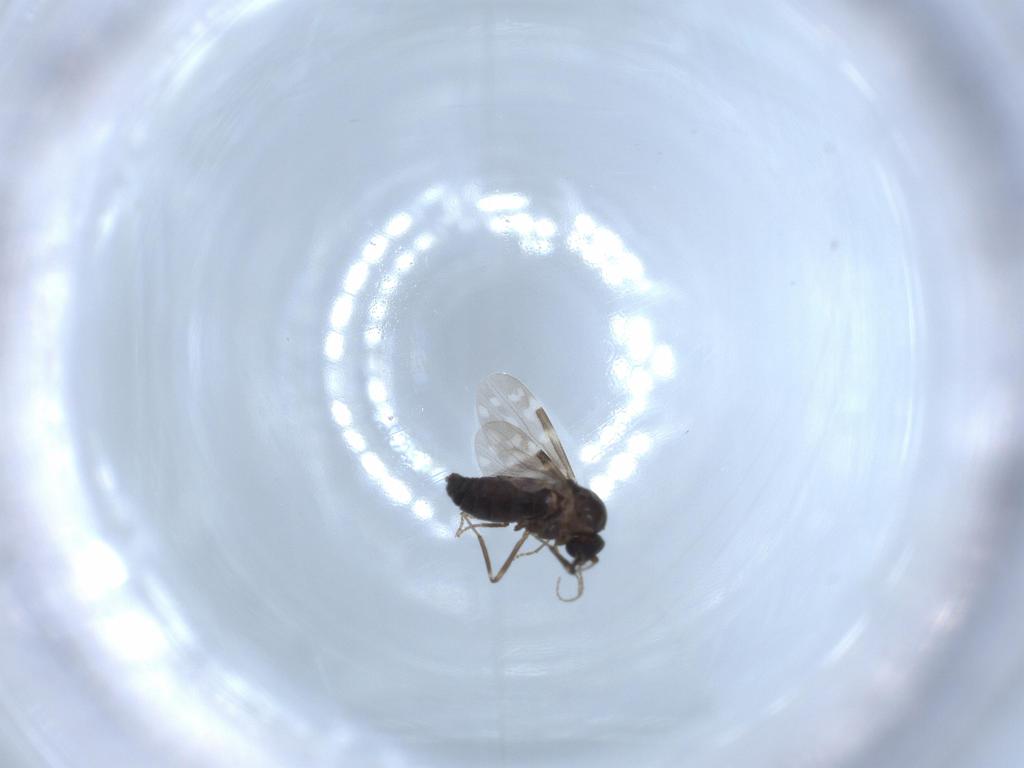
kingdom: Animalia
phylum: Arthropoda
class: Insecta
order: Diptera
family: Ceratopogonidae
